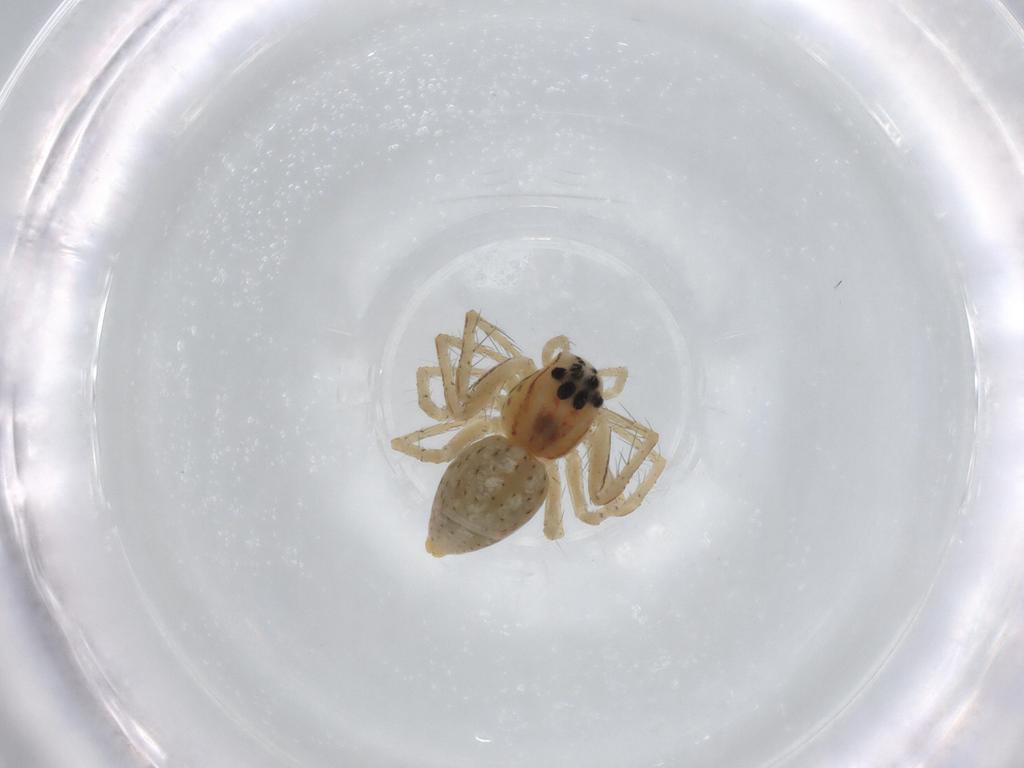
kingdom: Animalia
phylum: Arthropoda
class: Arachnida
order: Araneae
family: Oxyopidae
